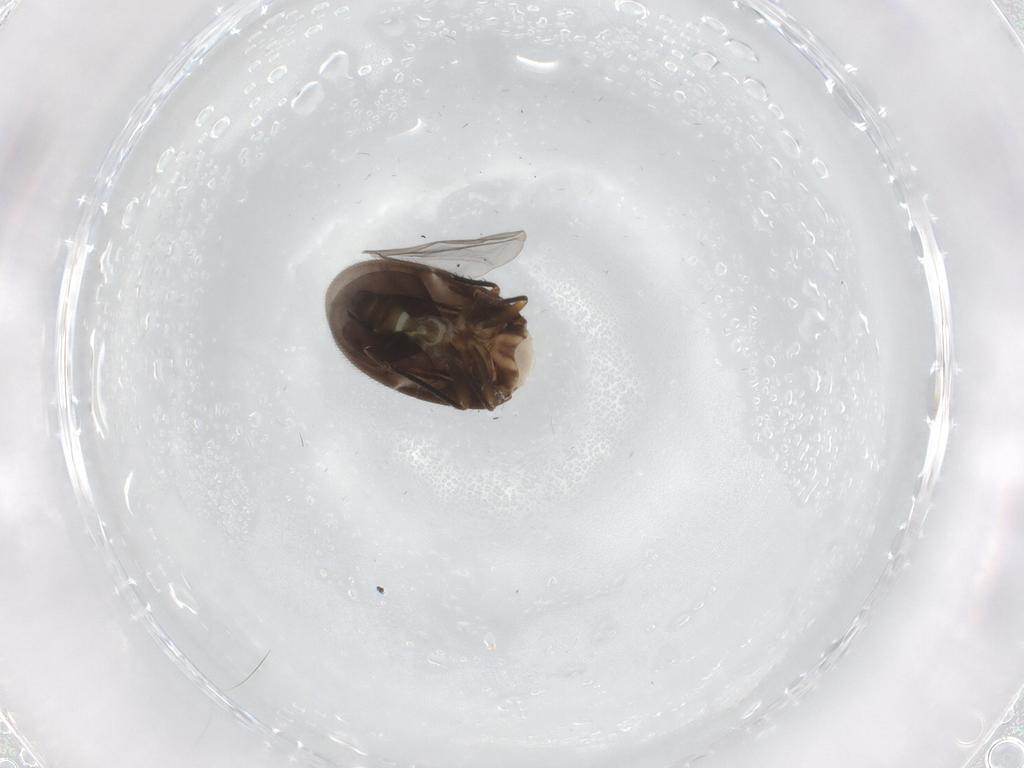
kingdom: Animalia
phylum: Arthropoda
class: Insecta
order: Hemiptera
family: Ceratocombidae
